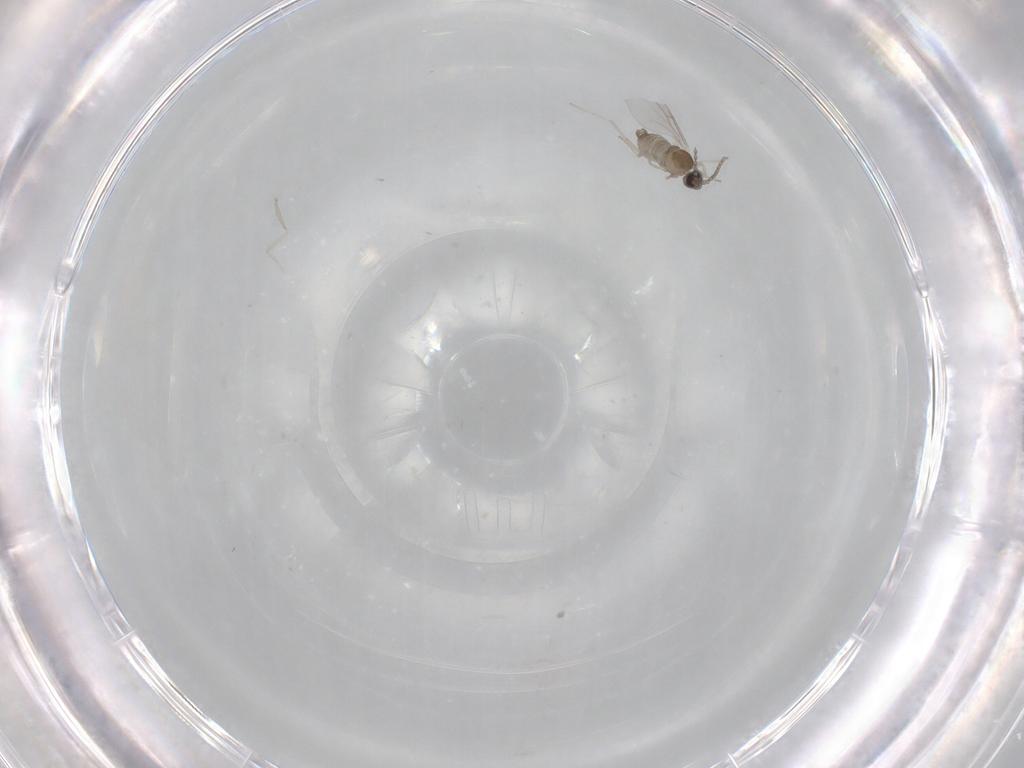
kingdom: Animalia
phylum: Arthropoda
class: Insecta
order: Diptera
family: Cecidomyiidae
